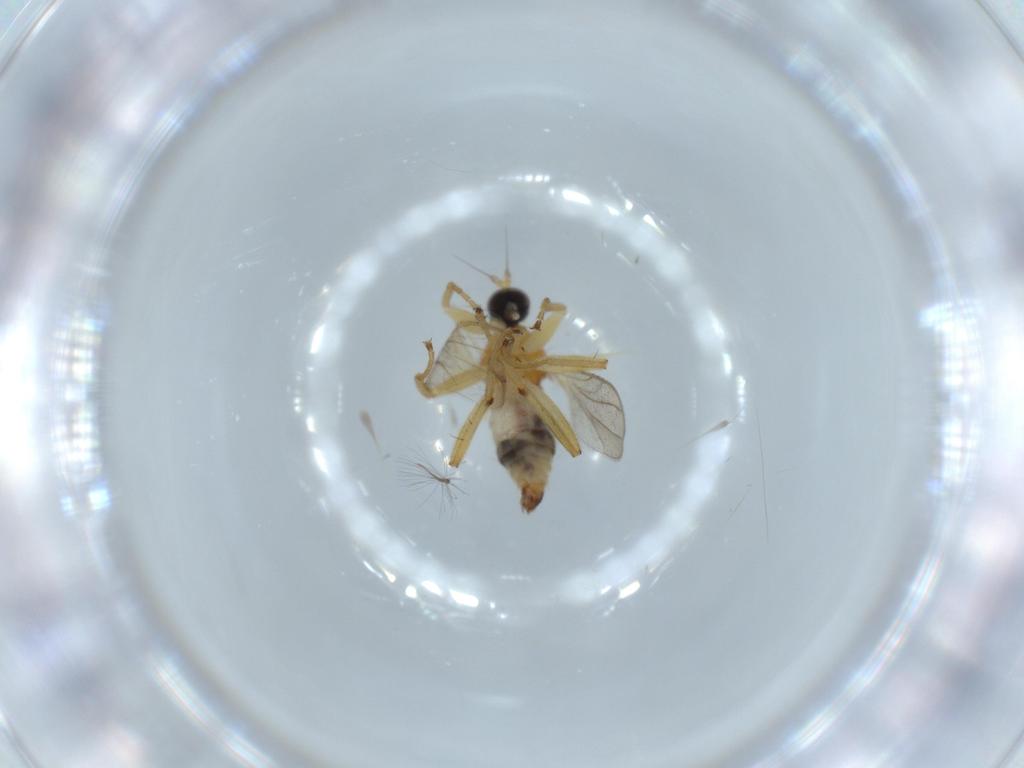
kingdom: Animalia
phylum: Arthropoda
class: Insecta
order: Diptera
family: Hybotidae
